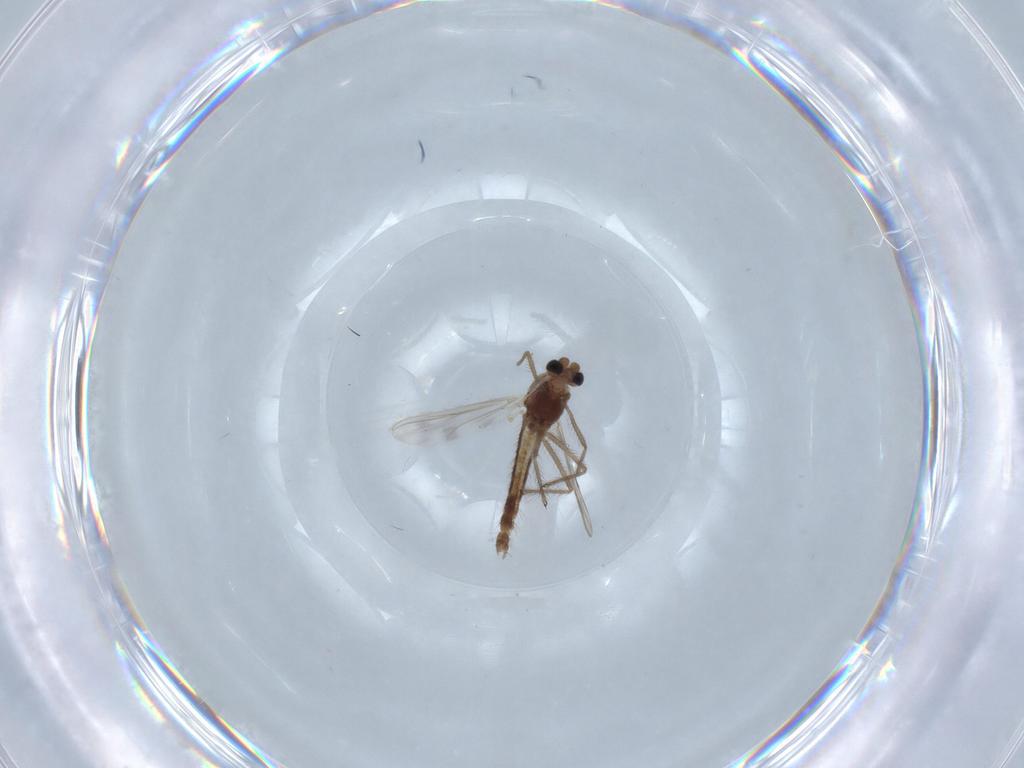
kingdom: Animalia
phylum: Arthropoda
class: Insecta
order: Diptera
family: Chironomidae
